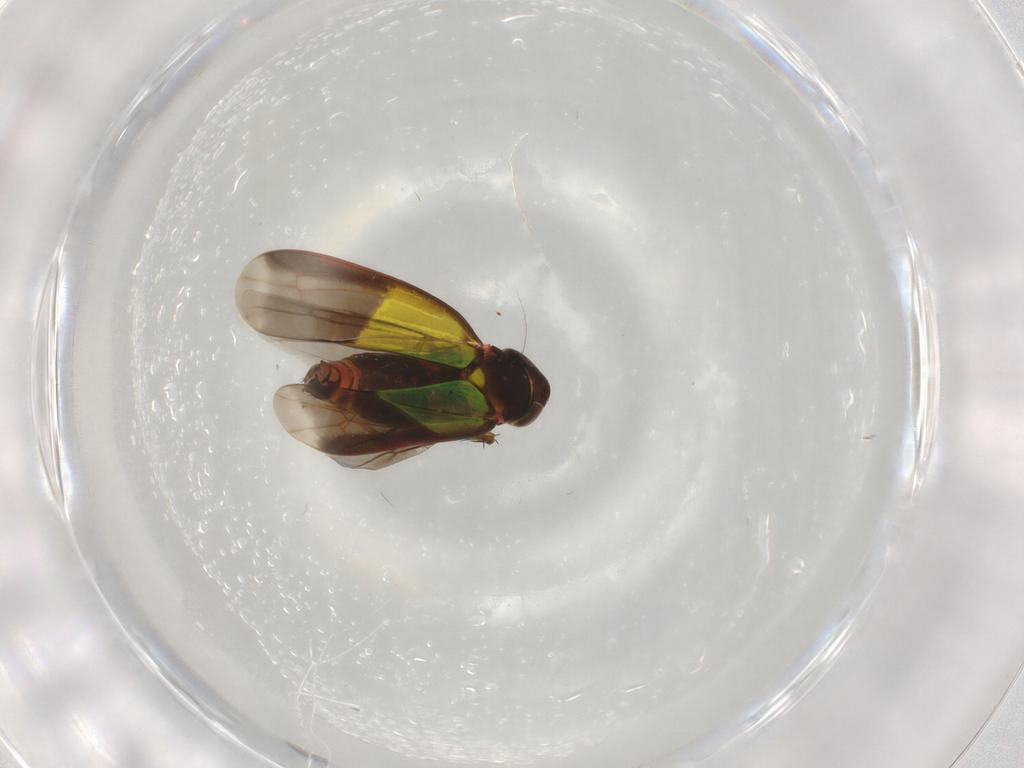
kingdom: Animalia
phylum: Arthropoda
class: Insecta
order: Hemiptera
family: Cicadellidae
